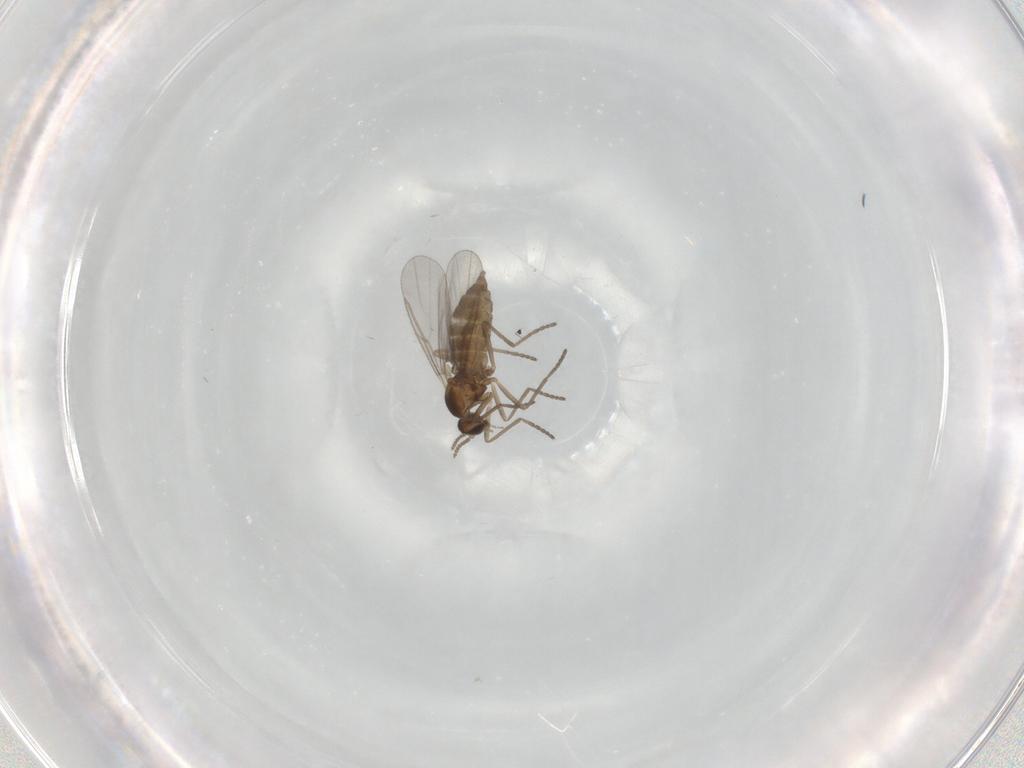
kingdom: Animalia
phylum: Arthropoda
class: Insecta
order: Diptera
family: Cecidomyiidae
